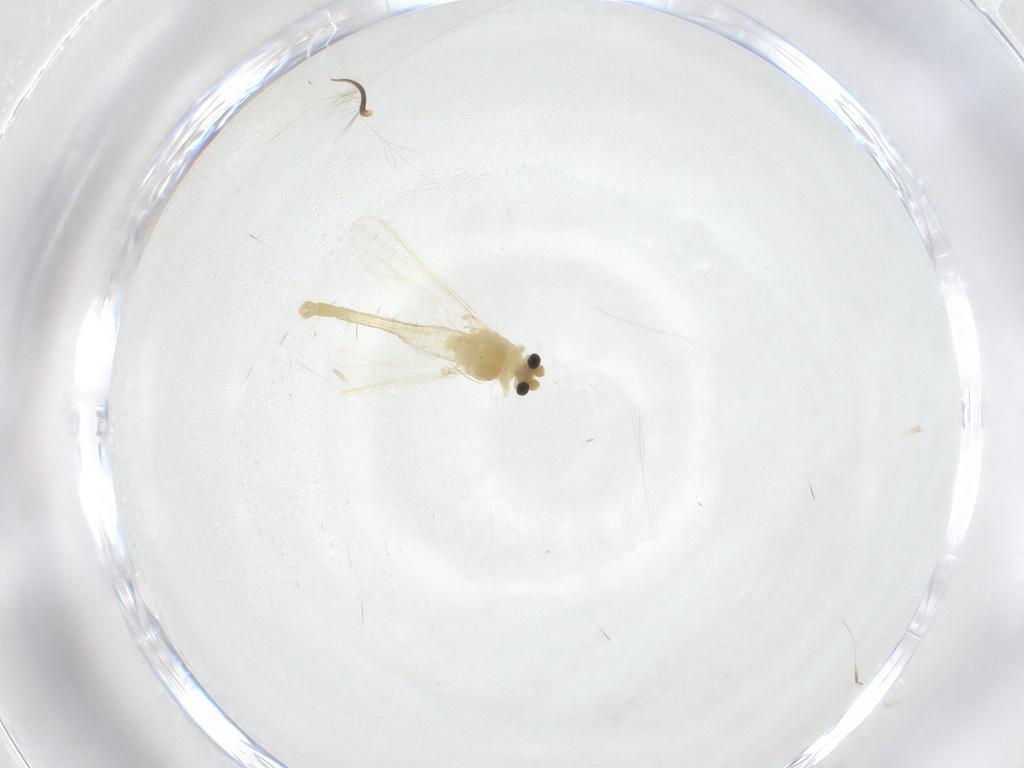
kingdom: Animalia
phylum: Arthropoda
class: Insecta
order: Diptera
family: Chironomidae
